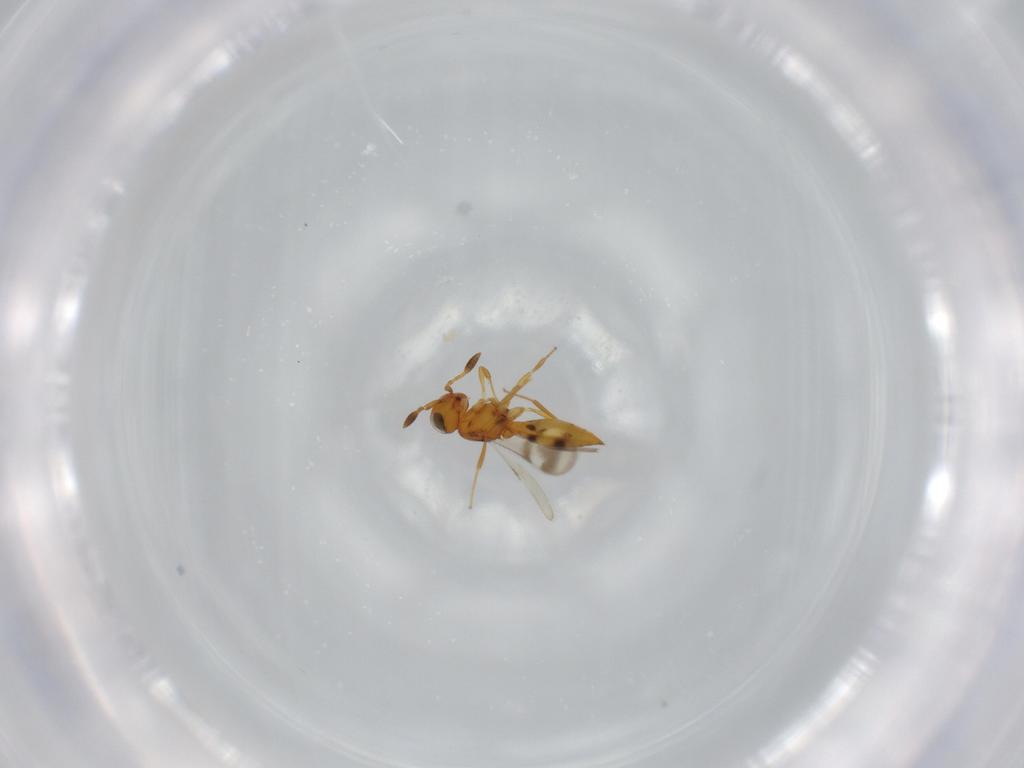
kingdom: Animalia
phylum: Arthropoda
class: Insecta
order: Hymenoptera
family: Scelionidae
